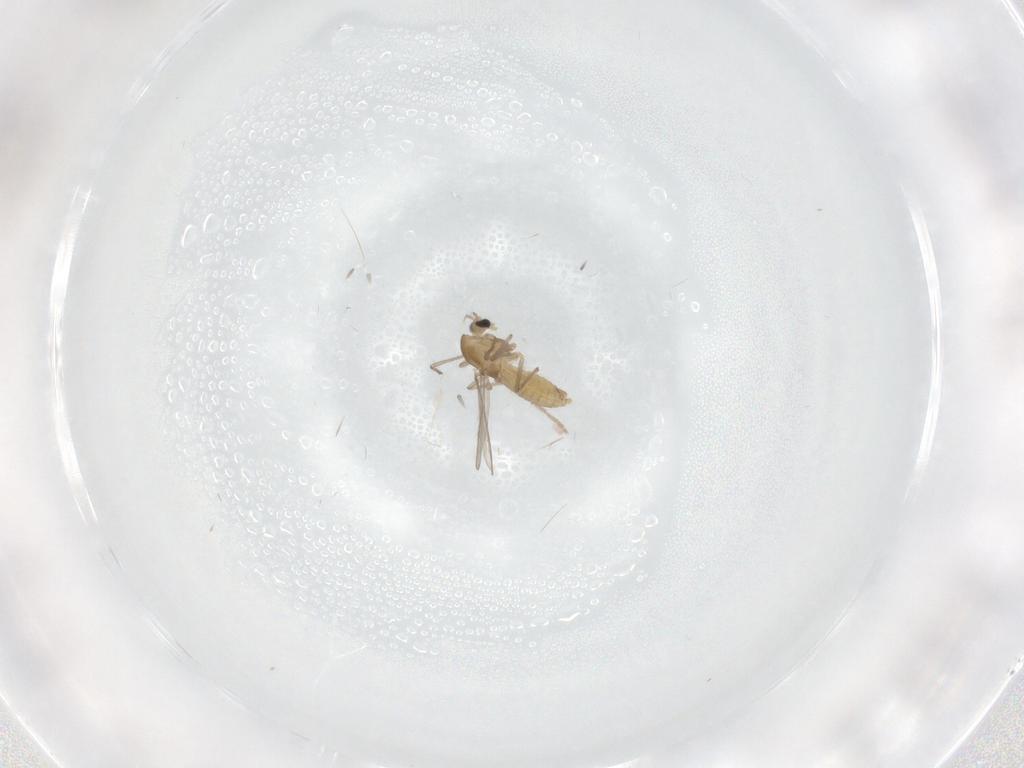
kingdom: Animalia
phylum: Arthropoda
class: Insecta
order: Diptera
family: Chironomidae
